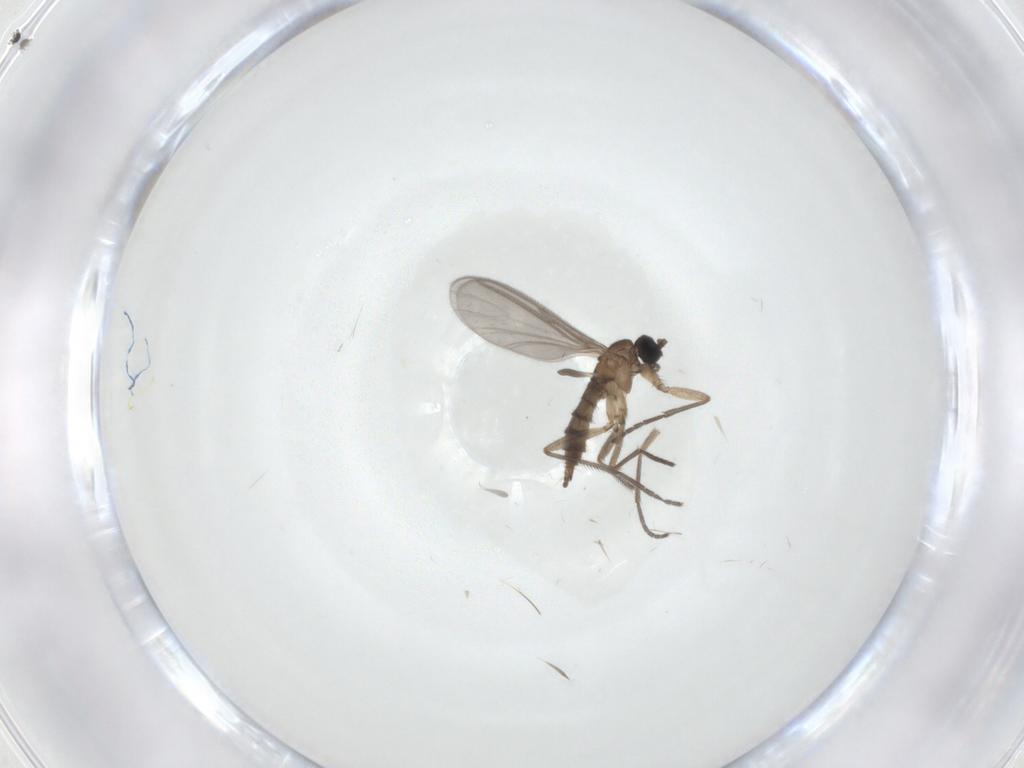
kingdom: Animalia
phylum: Arthropoda
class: Insecta
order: Diptera
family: Sciaridae
